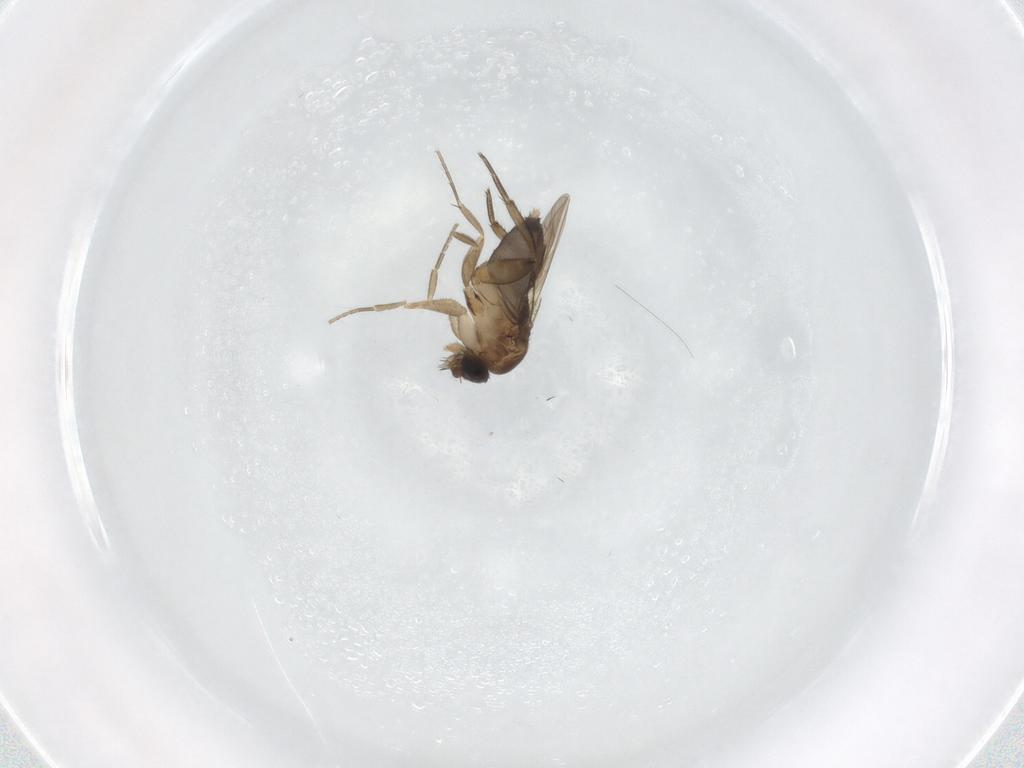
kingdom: Animalia
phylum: Arthropoda
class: Insecta
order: Diptera
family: Phoridae
